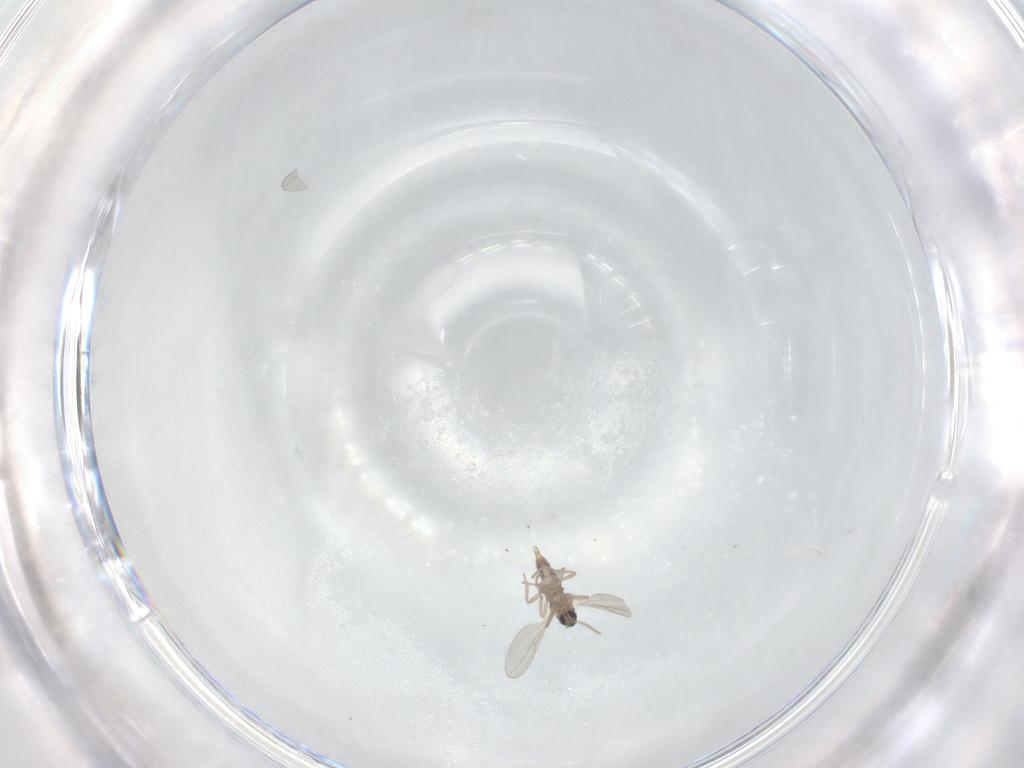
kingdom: Animalia
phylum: Arthropoda
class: Insecta
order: Diptera
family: Cecidomyiidae
